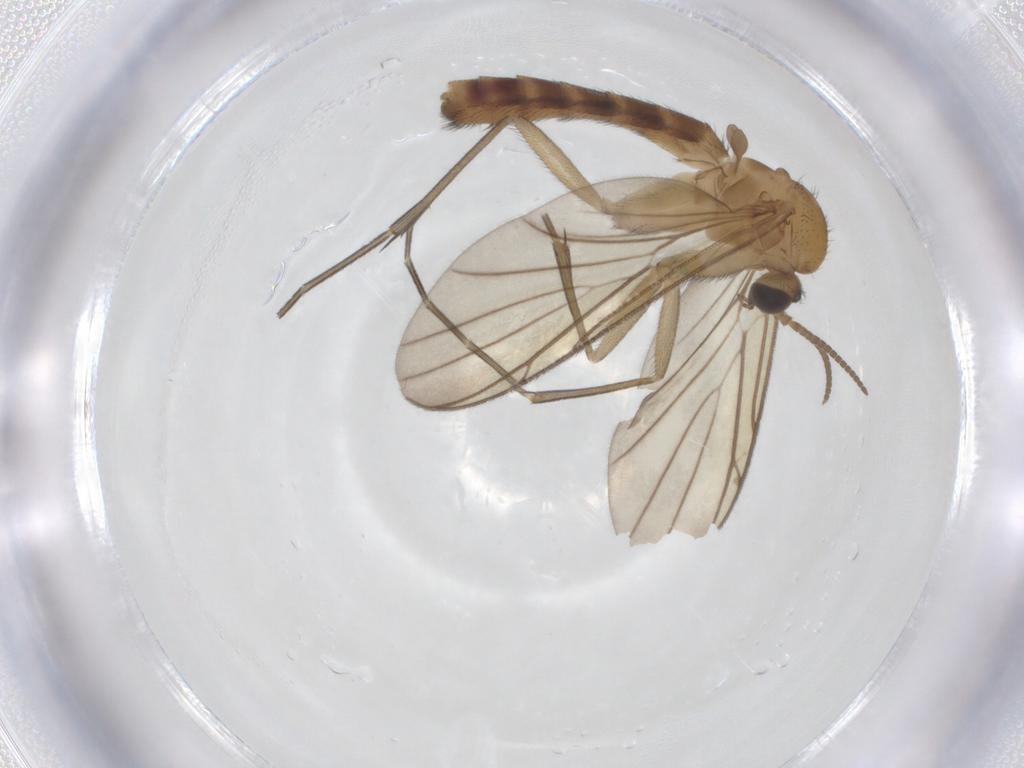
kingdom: Animalia
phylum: Arthropoda
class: Insecta
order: Diptera
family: Keroplatidae
